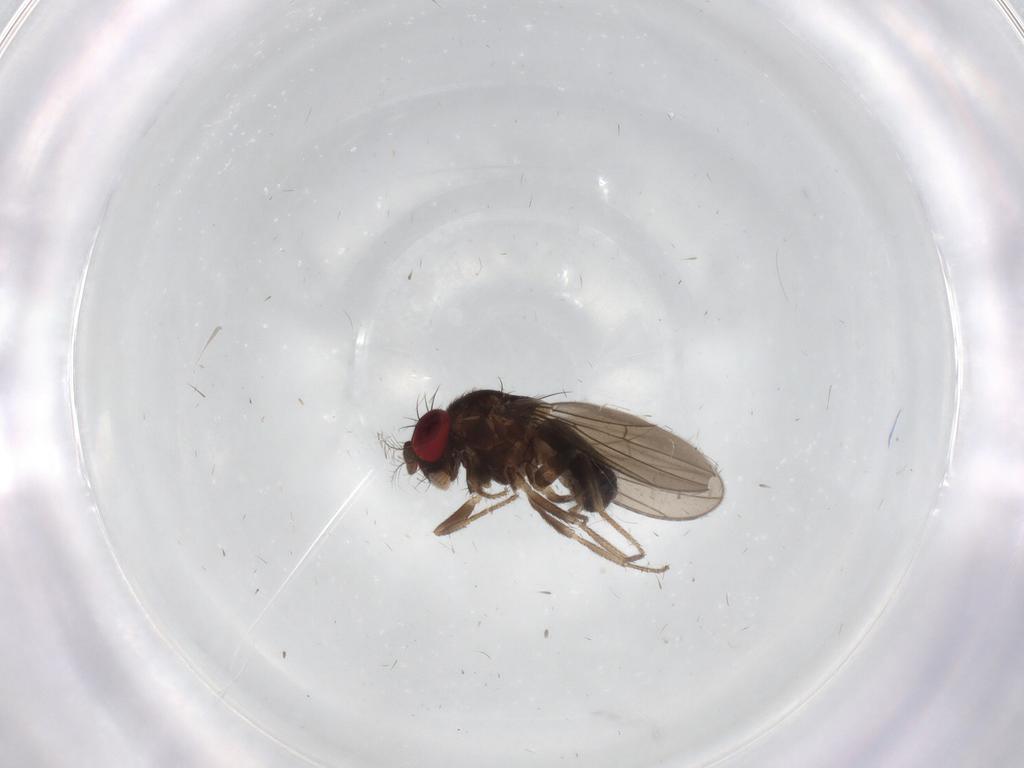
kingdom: Animalia
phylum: Arthropoda
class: Insecta
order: Diptera
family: Drosophilidae
